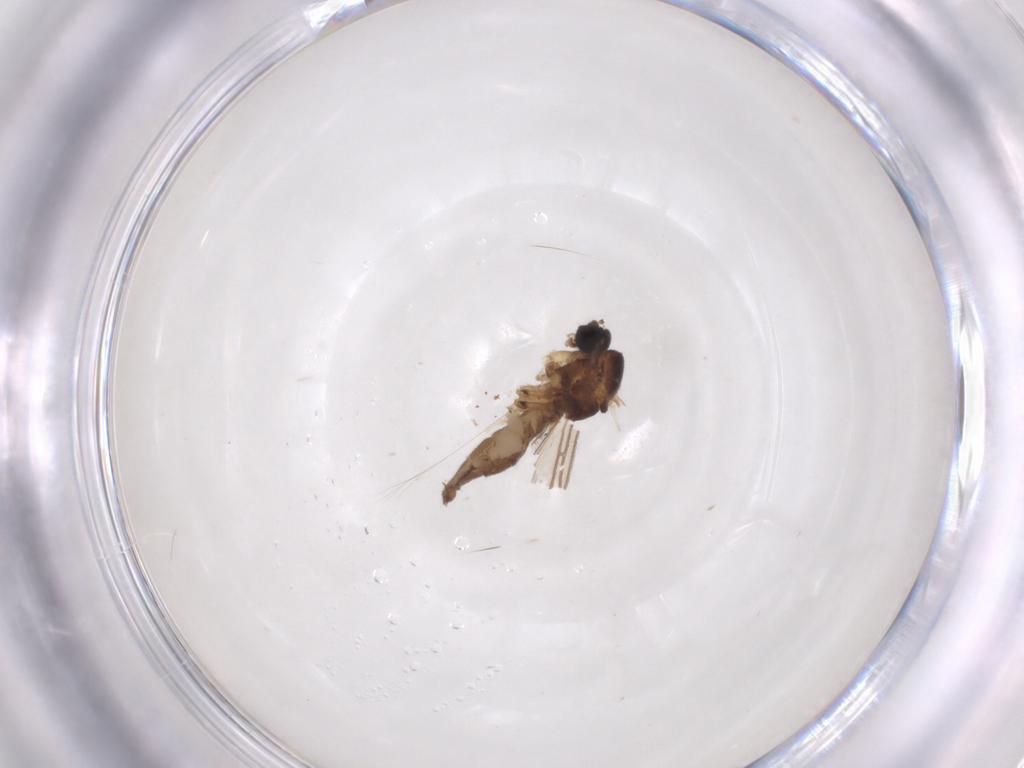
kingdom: Animalia
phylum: Arthropoda
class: Insecta
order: Diptera
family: Sciaridae
